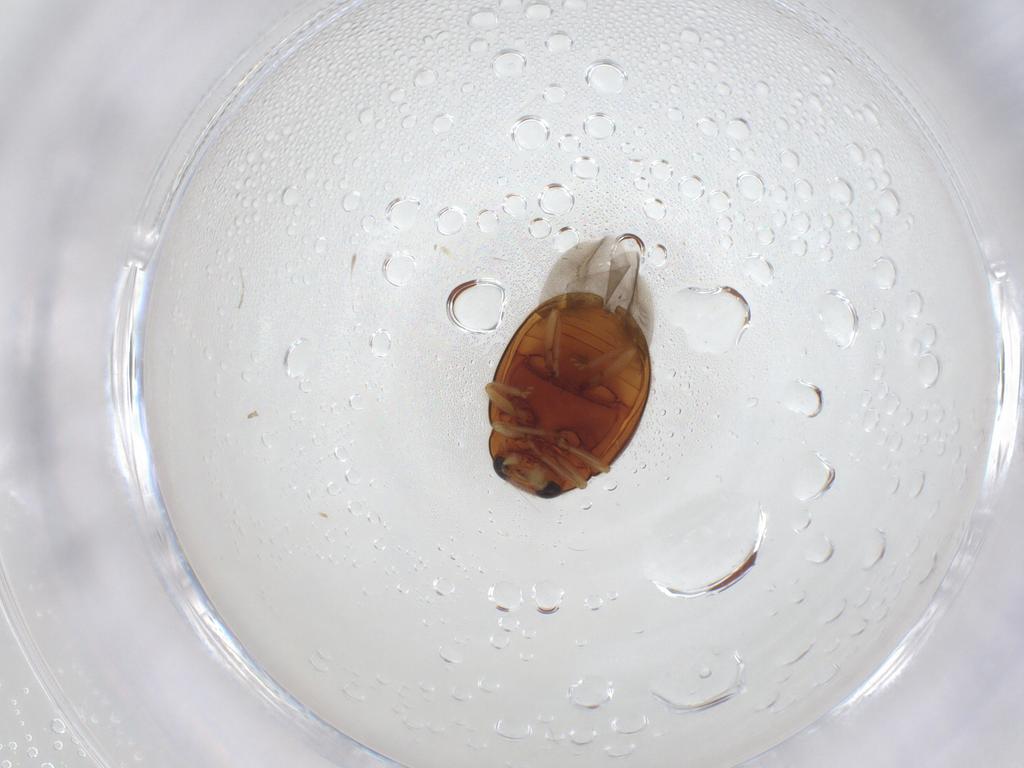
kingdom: Animalia
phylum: Arthropoda
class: Insecta
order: Coleoptera
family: Coccinellidae
